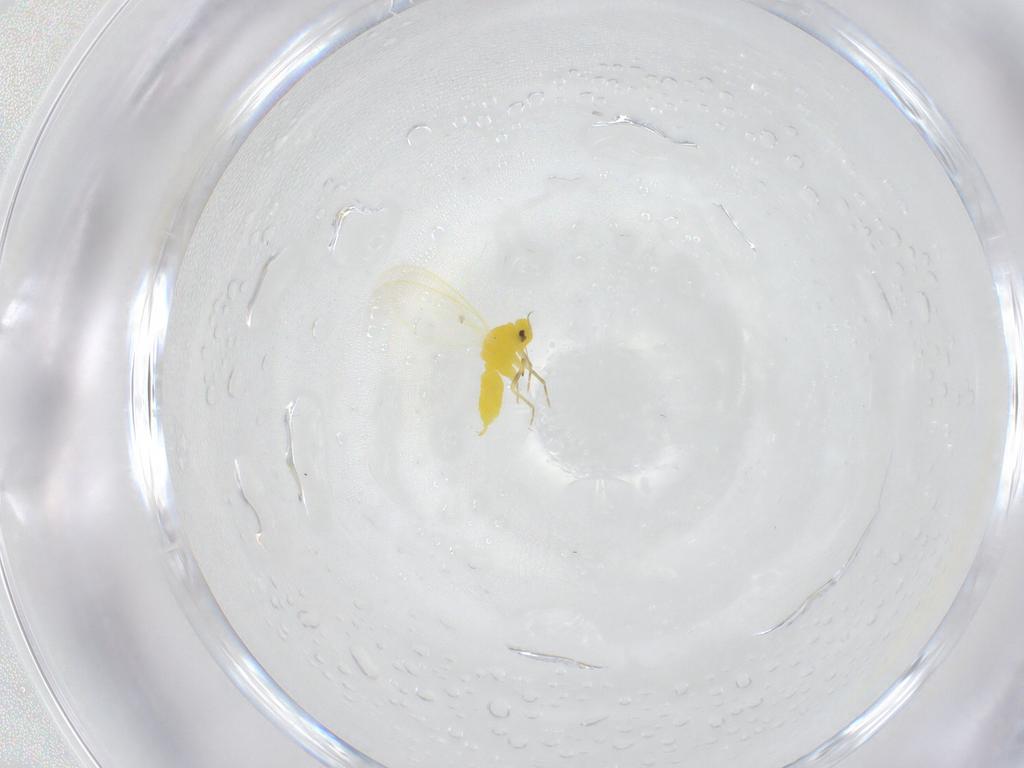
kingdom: Animalia
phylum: Arthropoda
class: Insecta
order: Hemiptera
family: Aleyrodidae
